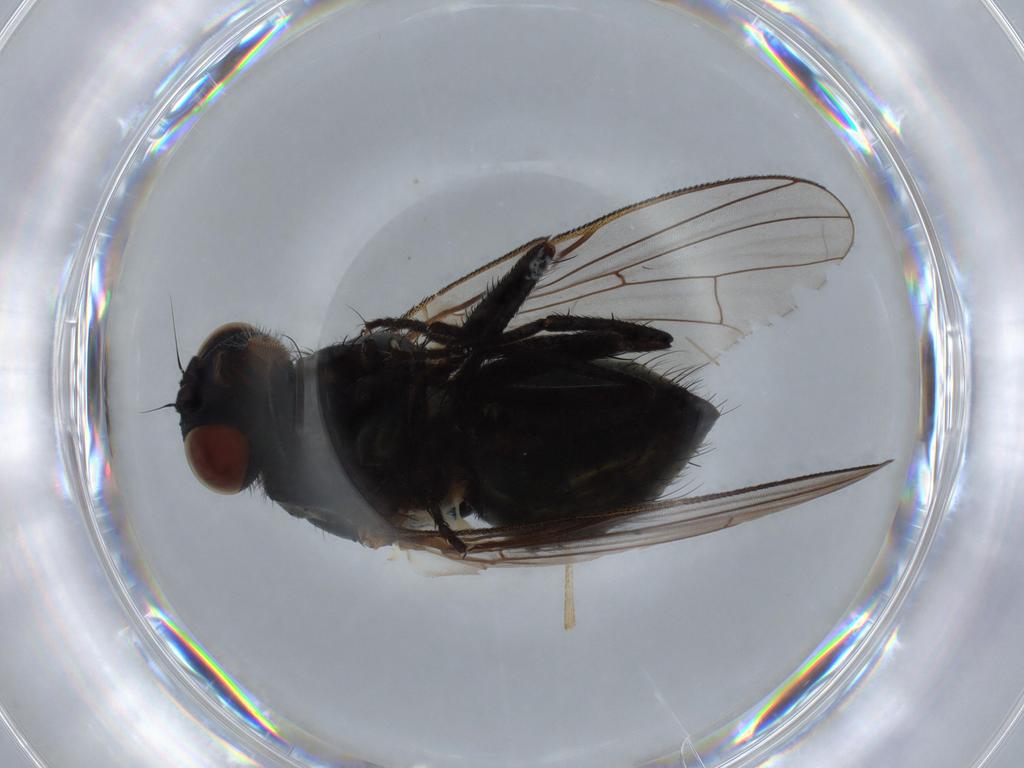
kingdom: Animalia
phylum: Arthropoda
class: Insecta
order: Diptera
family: Muscidae
